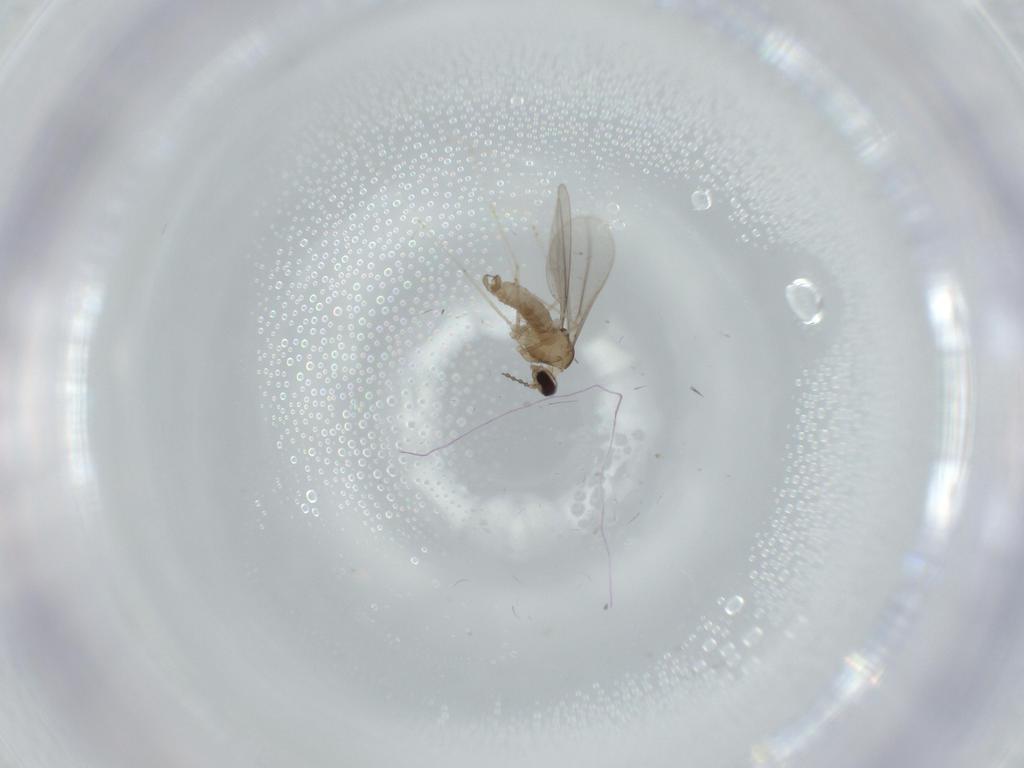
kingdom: Animalia
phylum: Arthropoda
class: Insecta
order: Diptera
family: Cecidomyiidae
